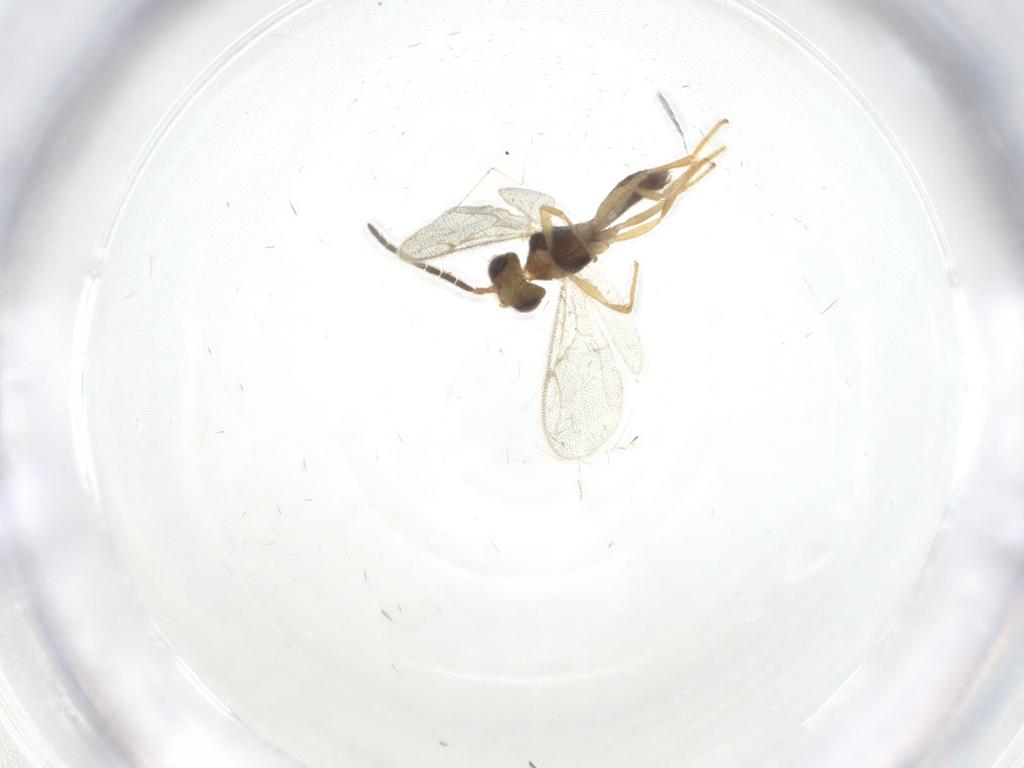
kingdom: Animalia
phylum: Arthropoda
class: Insecta
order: Hymenoptera
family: Dryinidae
